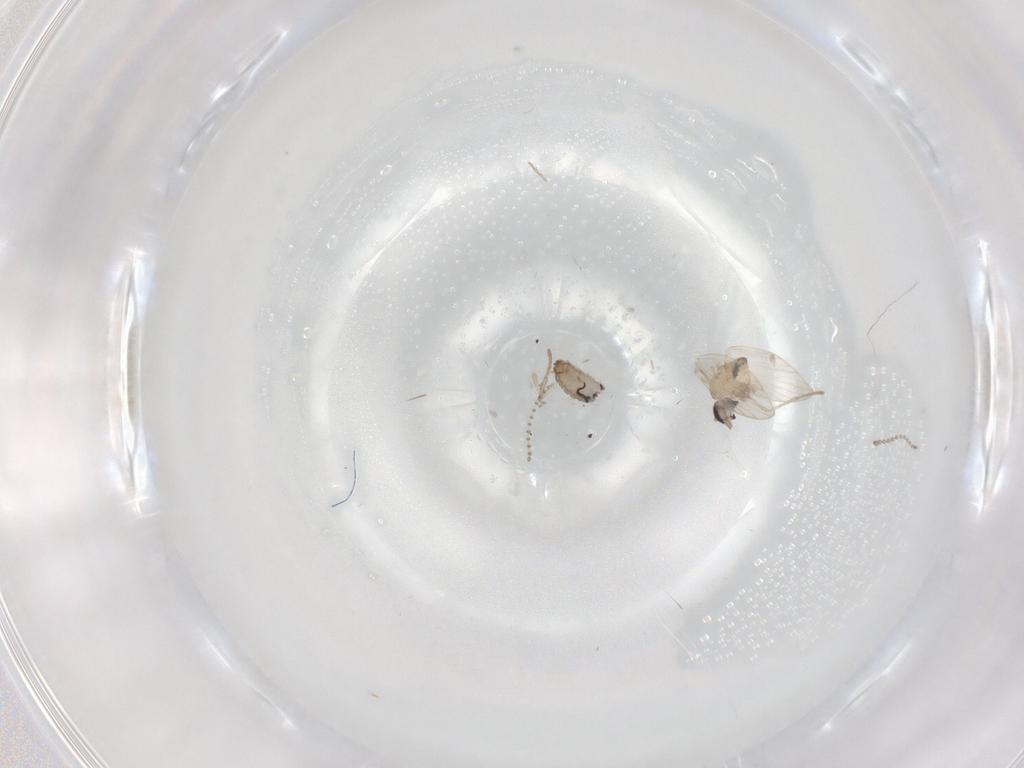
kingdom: Animalia
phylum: Arthropoda
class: Insecta
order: Diptera
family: Psychodidae
